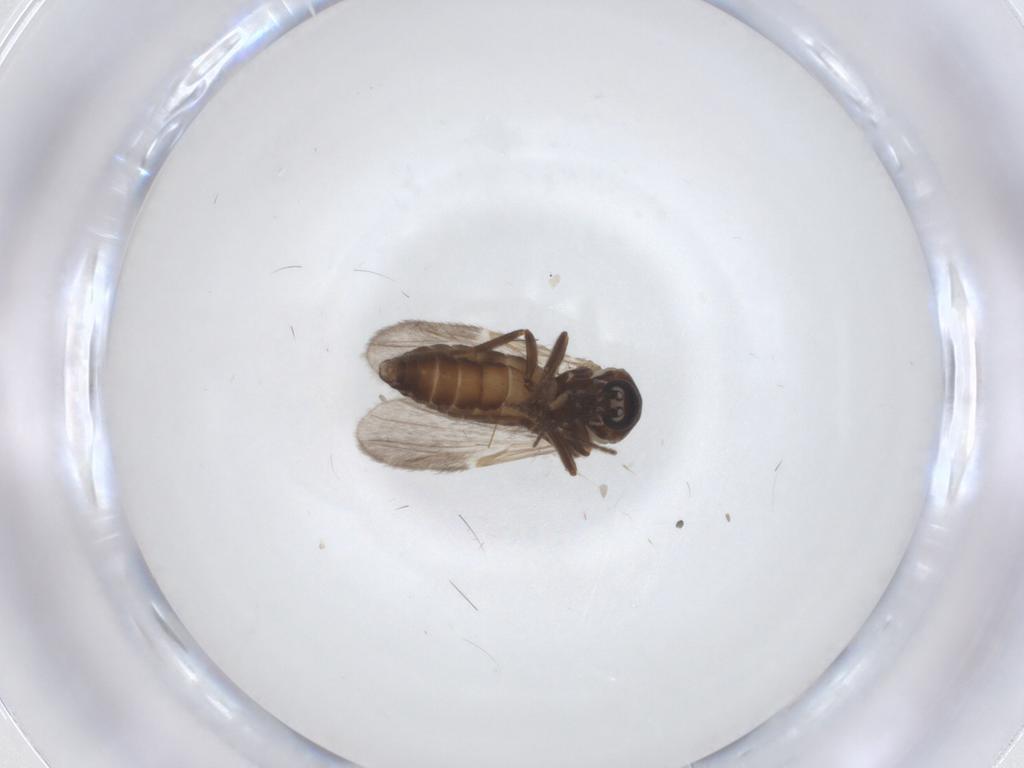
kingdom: Animalia
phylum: Arthropoda
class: Insecta
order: Diptera
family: Ceratopogonidae
